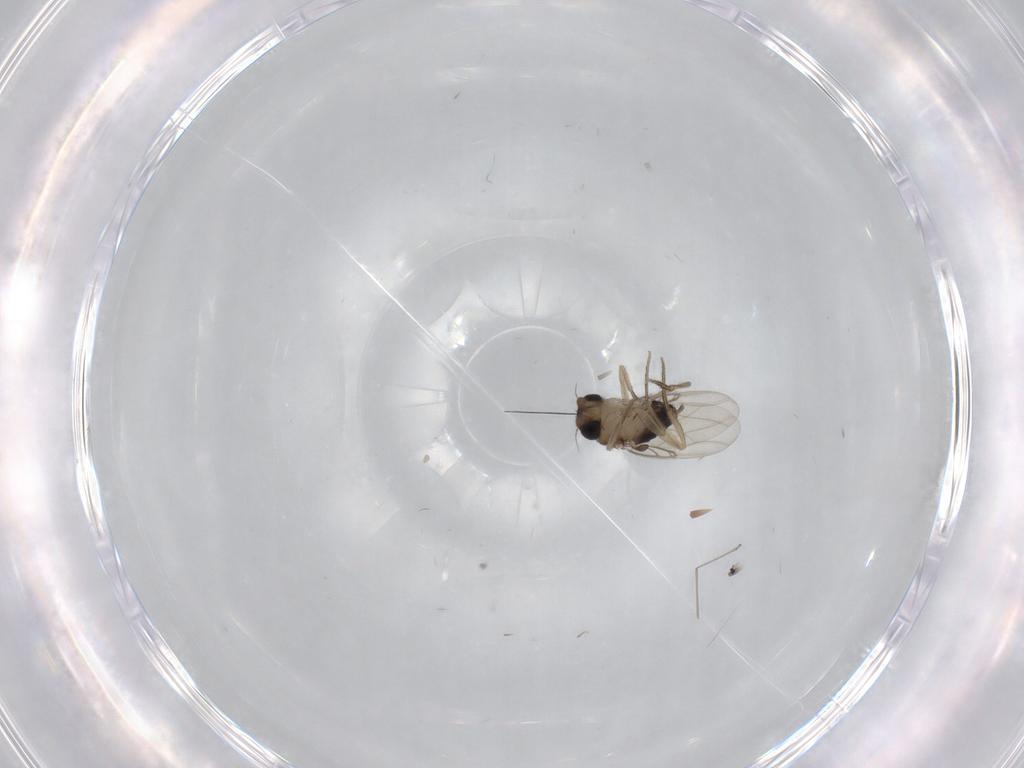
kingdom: Animalia
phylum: Arthropoda
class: Insecta
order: Diptera
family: Cecidomyiidae
